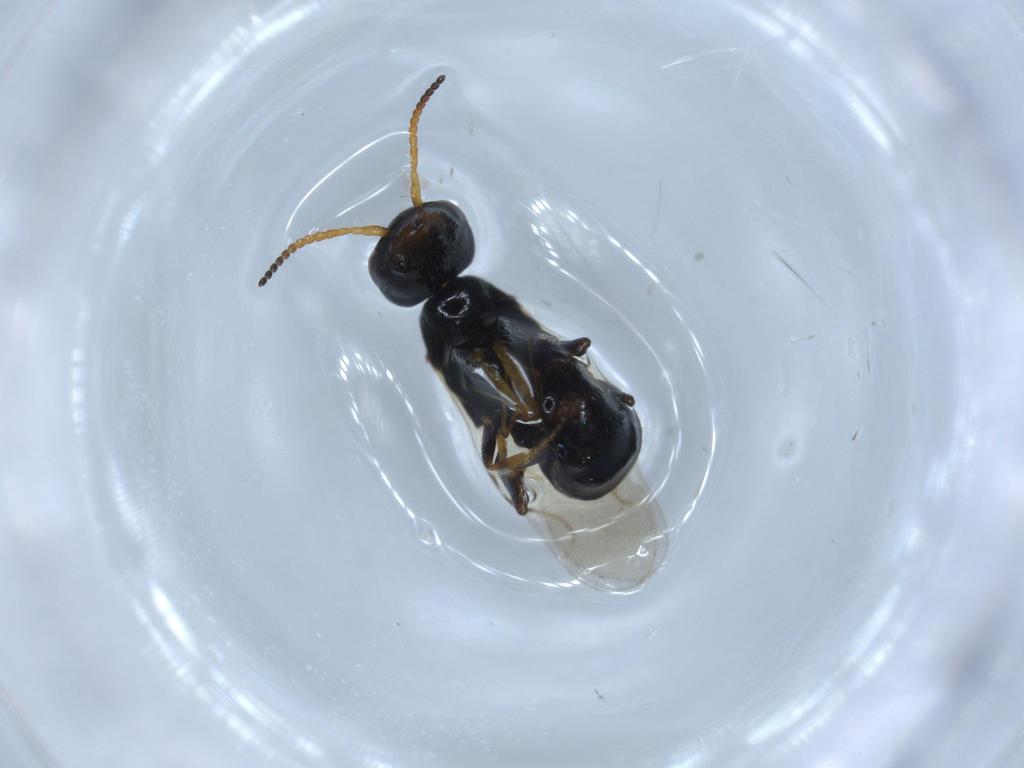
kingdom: Animalia
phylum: Arthropoda
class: Insecta
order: Hymenoptera
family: Bethylidae
